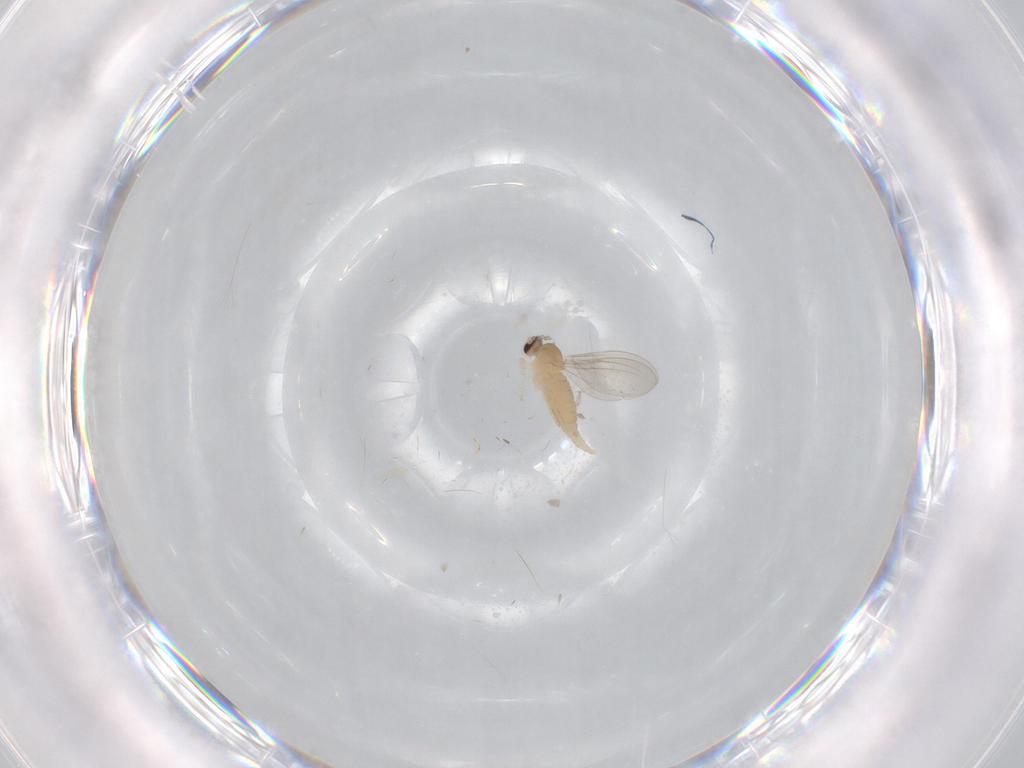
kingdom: Animalia
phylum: Arthropoda
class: Insecta
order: Diptera
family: Cecidomyiidae
